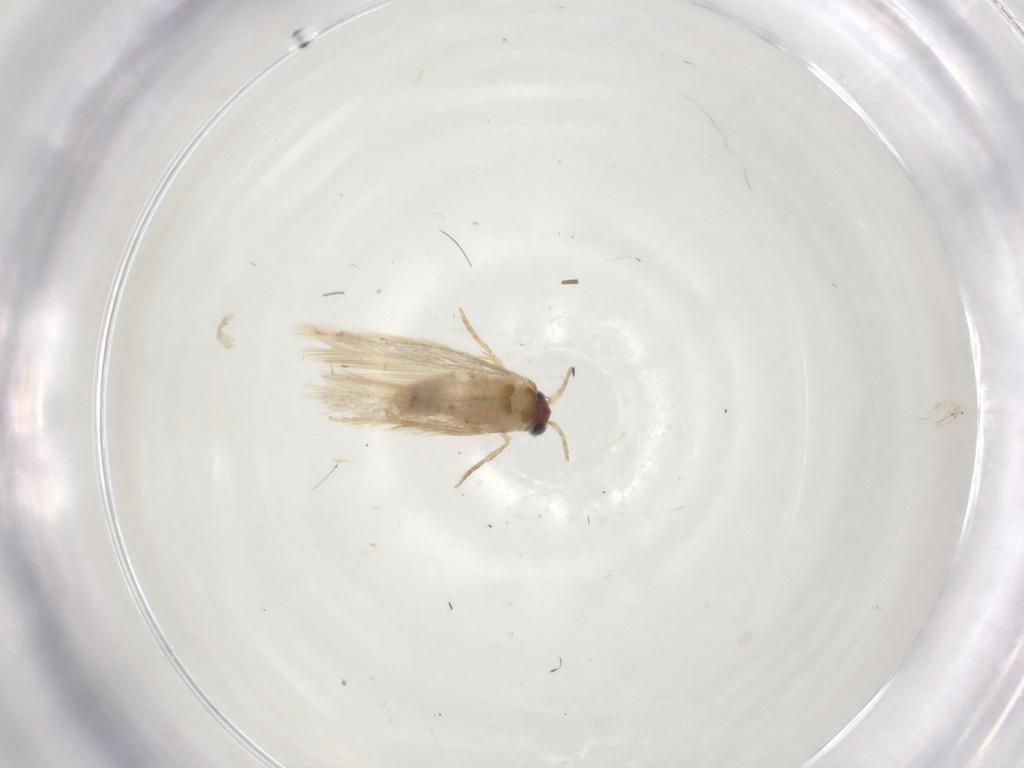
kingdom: Animalia
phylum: Arthropoda
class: Insecta
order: Lepidoptera
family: Nepticulidae
